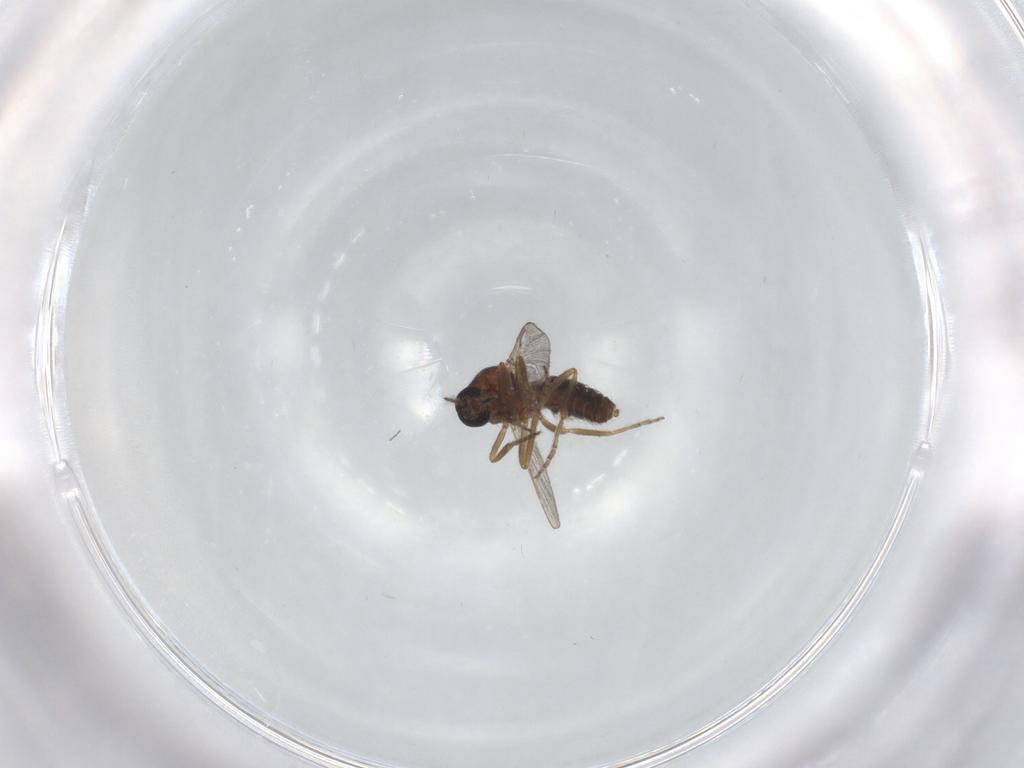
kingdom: Animalia
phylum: Arthropoda
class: Insecta
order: Diptera
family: Ceratopogonidae
